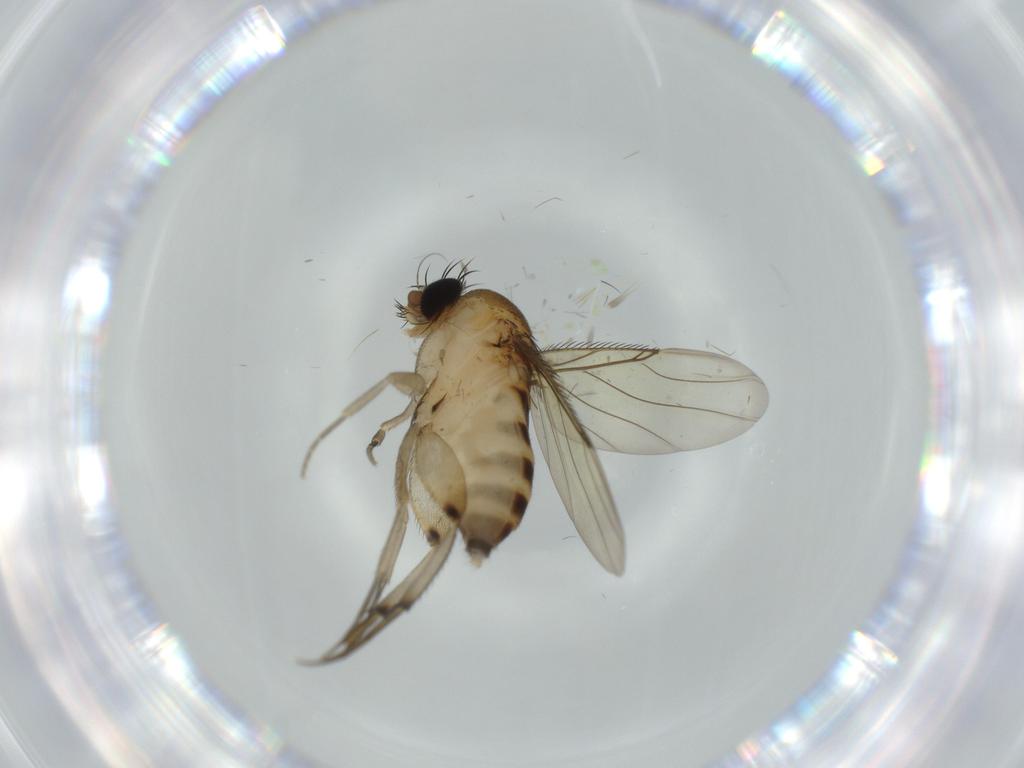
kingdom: Animalia
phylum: Arthropoda
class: Insecta
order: Diptera
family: Phoridae
